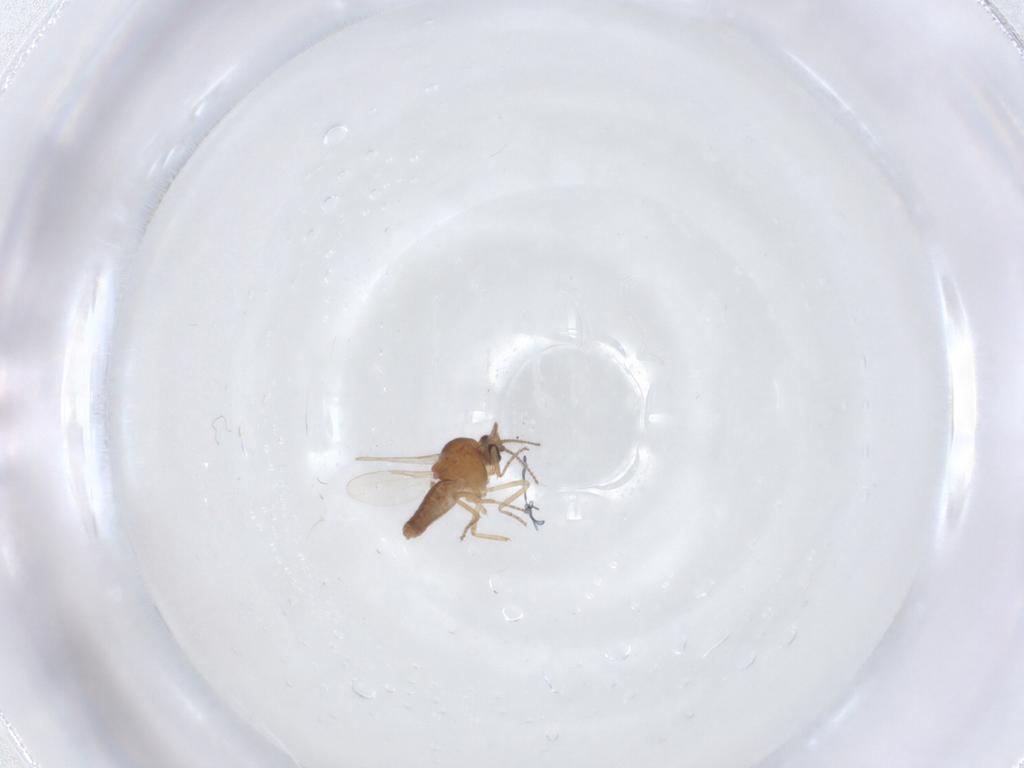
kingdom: Animalia
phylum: Arthropoda
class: Insecta
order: Diptera
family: Ceratopogonidae
